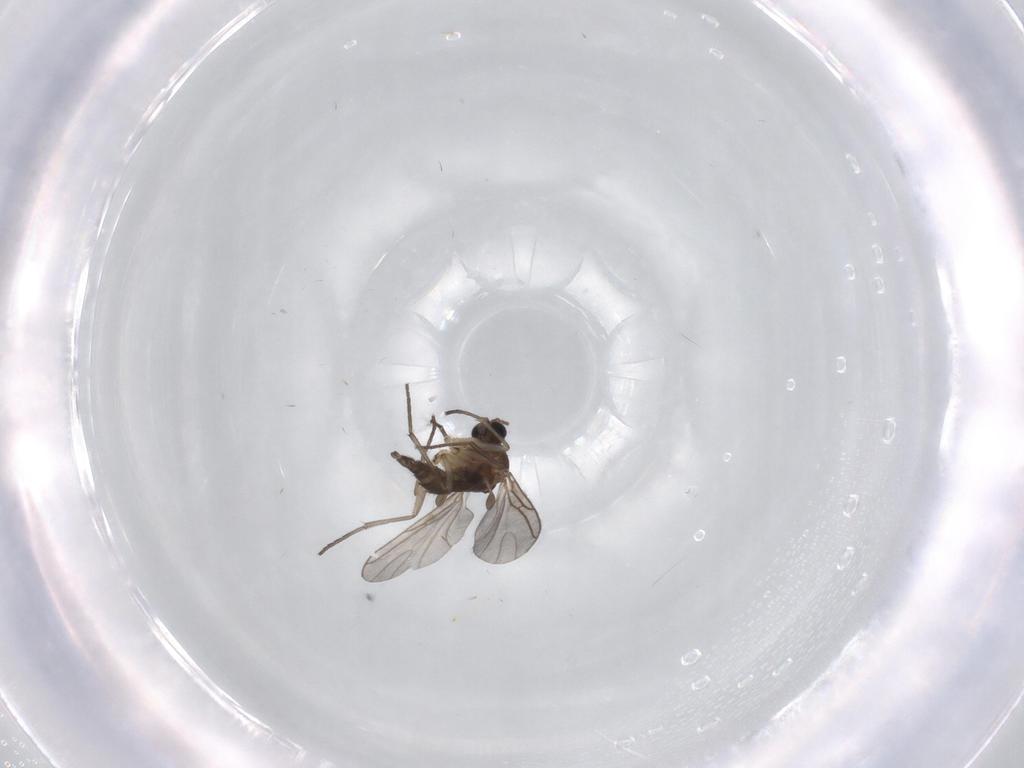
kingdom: Animalia
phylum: Arthropoda
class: Insecta
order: Diptera
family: Sciaridae
